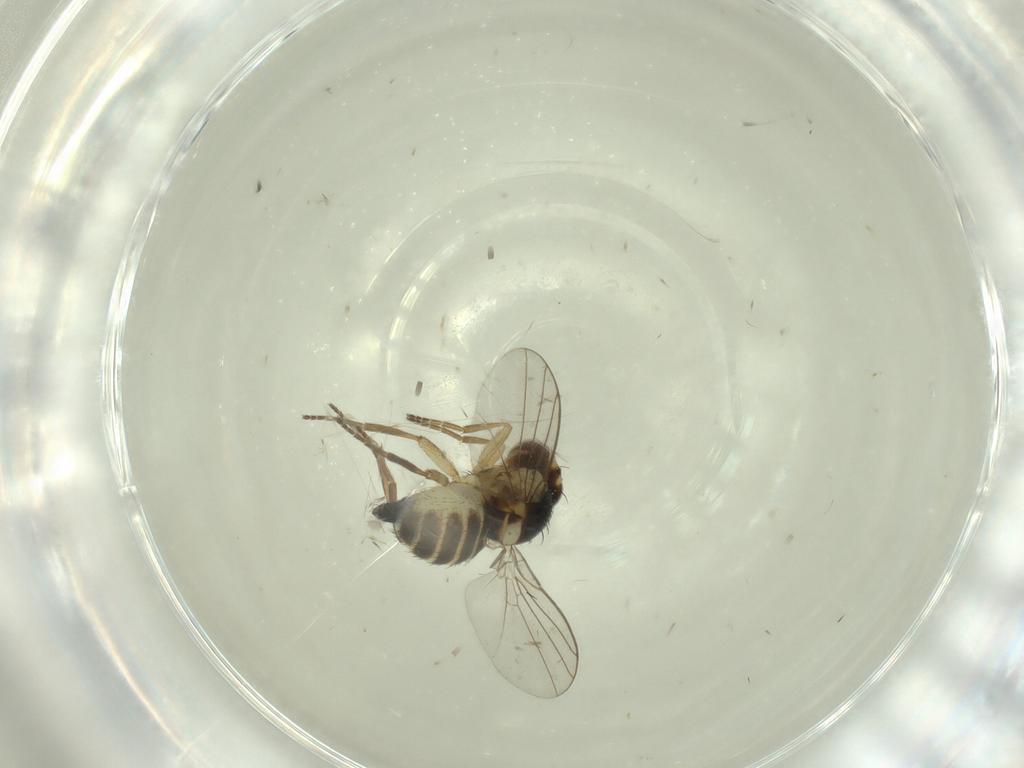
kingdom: Animalia
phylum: Arthropoda
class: Insecta
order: Diptera
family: Agromyzidae
